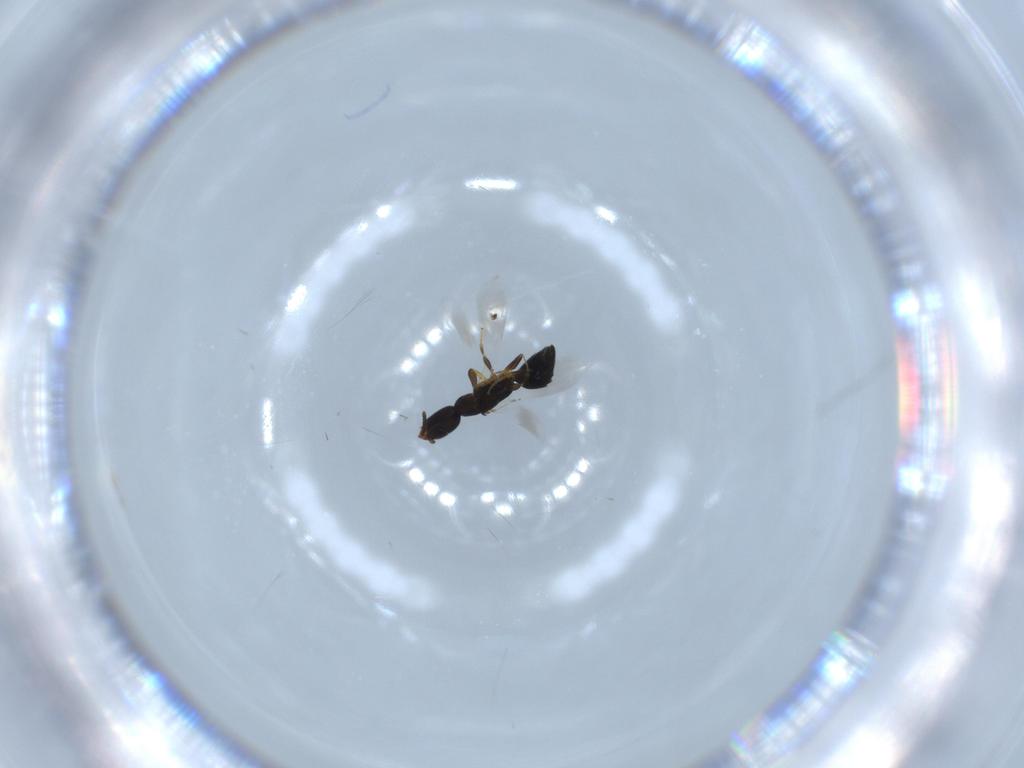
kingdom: Animalia
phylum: Arthropoda
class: Insecta
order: Hymenoptera
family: Bethylidae
